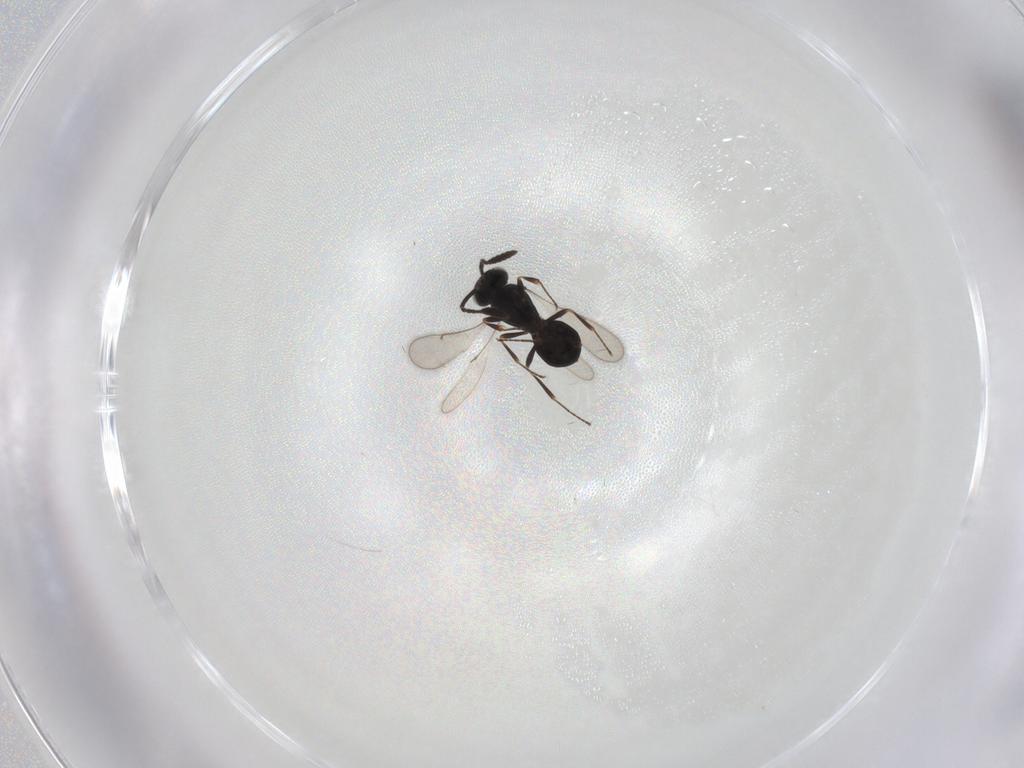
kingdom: Animalia
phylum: Arthropoda
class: Insecta
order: Hymenoptera
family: Scelionidae
